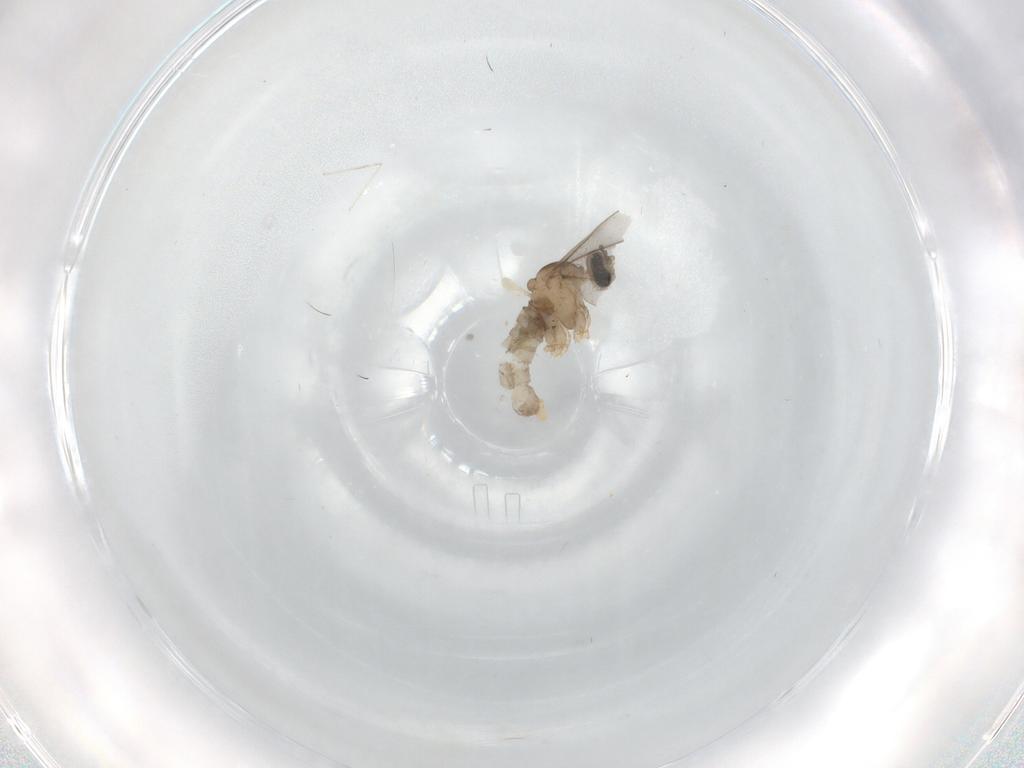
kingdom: Animalia
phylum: Arthropoda
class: Insecta
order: Diptera
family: Cecidomyiidae
